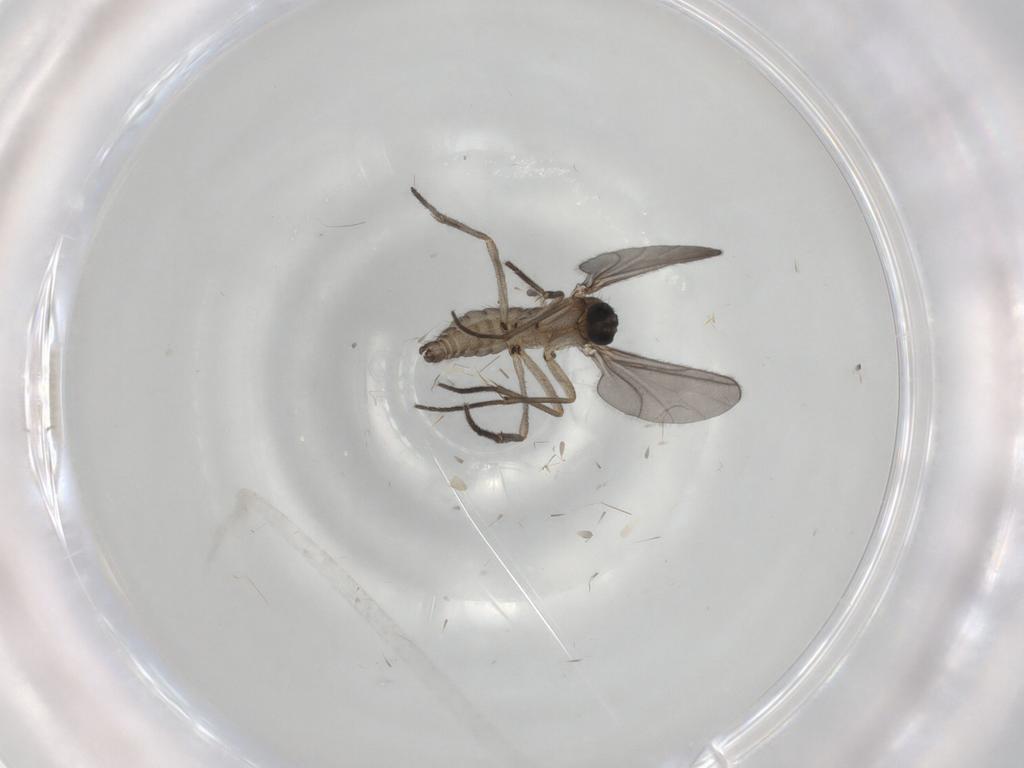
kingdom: Animalia
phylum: Arthropoda
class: Insecta
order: Diptera
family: Sciaridae
